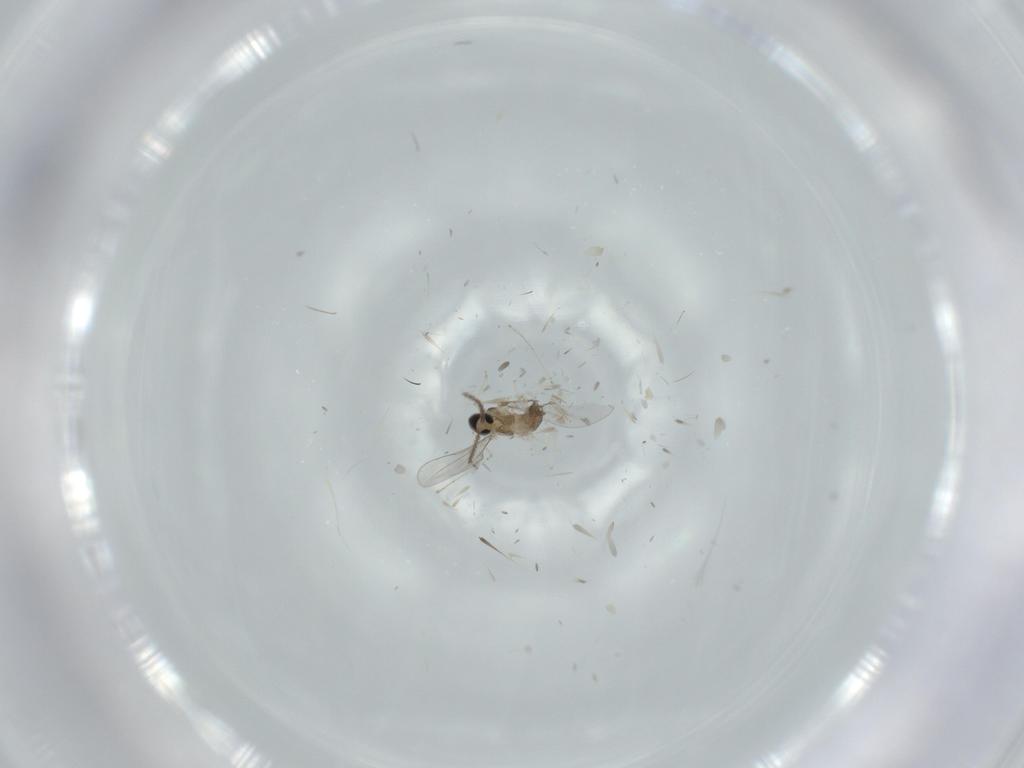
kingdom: Animalia
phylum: Arthropoda
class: Insecta
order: Diptera
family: Cecidomyiidae
